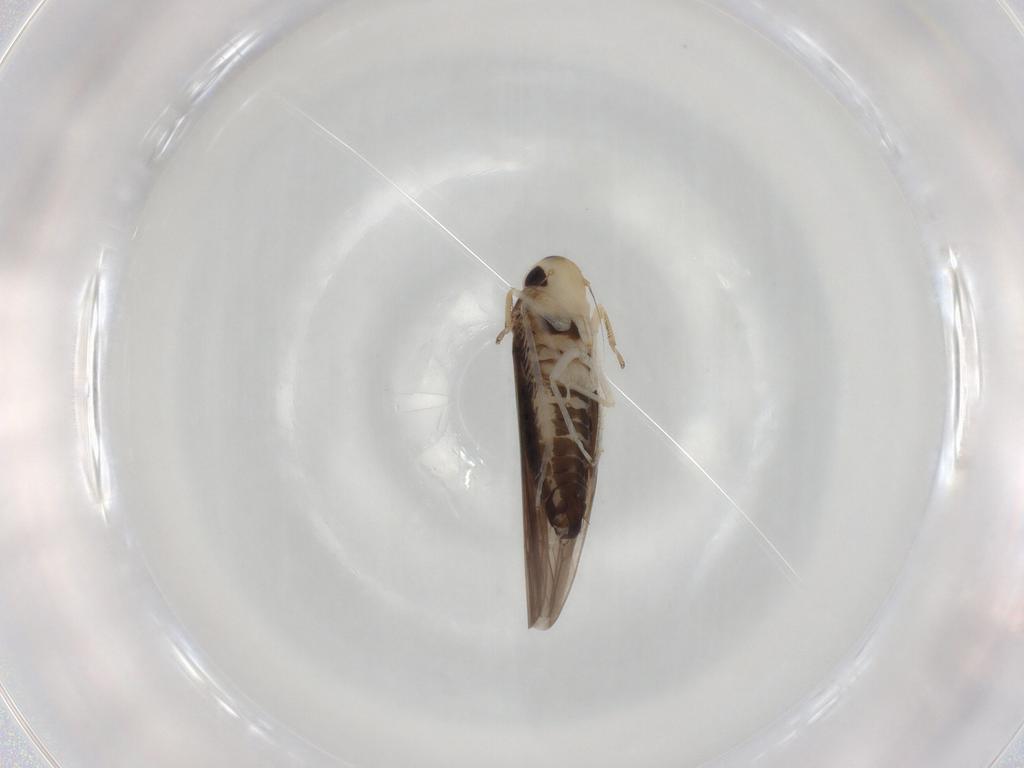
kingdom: Animalia
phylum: Arthropoda
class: Insecta
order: Hemiptera
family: Cicadellidae
